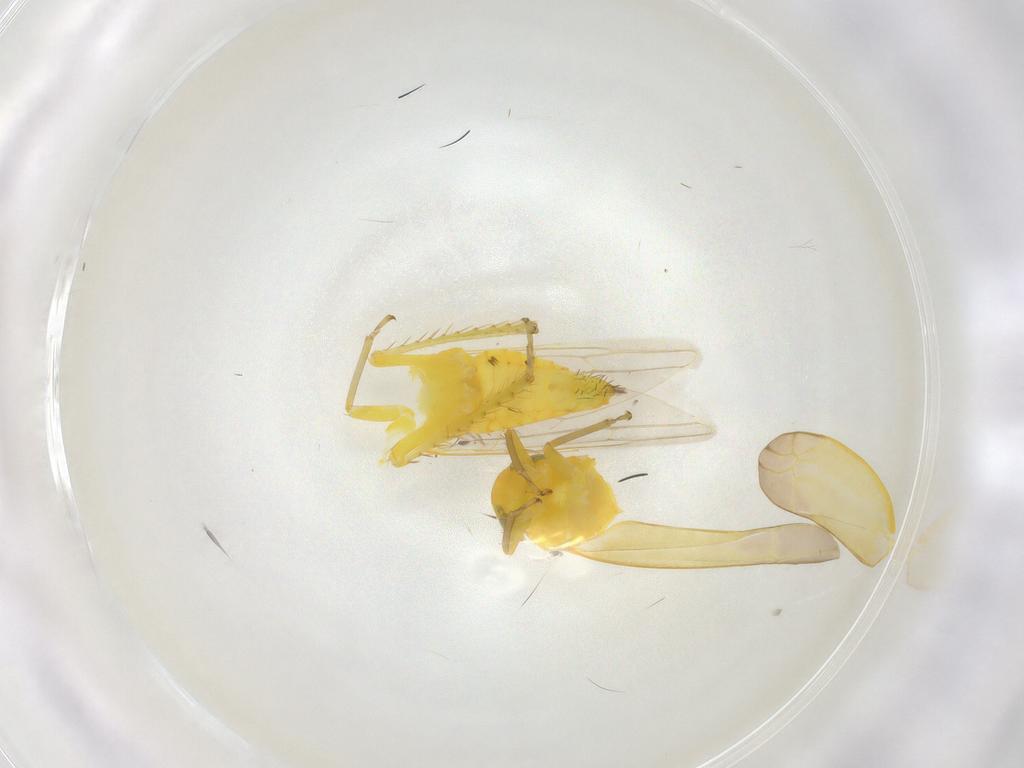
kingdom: Animalia
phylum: Arthropoda
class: Insecta
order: Hemiptera
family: Cicadellidae
